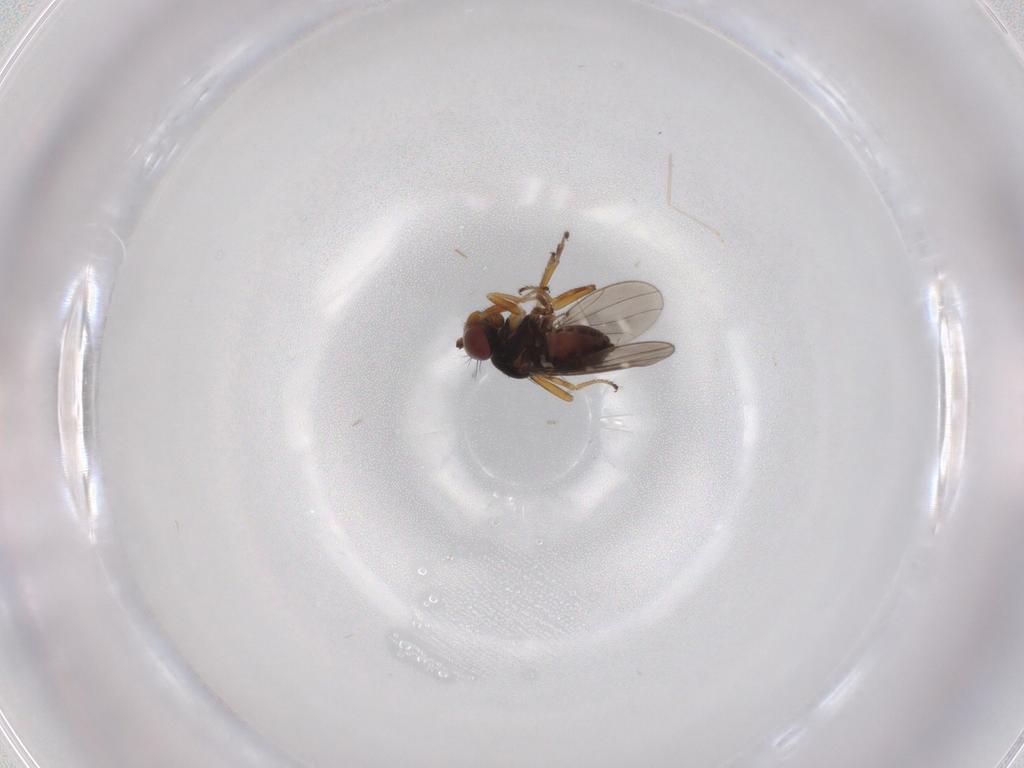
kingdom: Animalia
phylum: Arthropoda
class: Insecta
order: Diptera
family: Ephydridae
